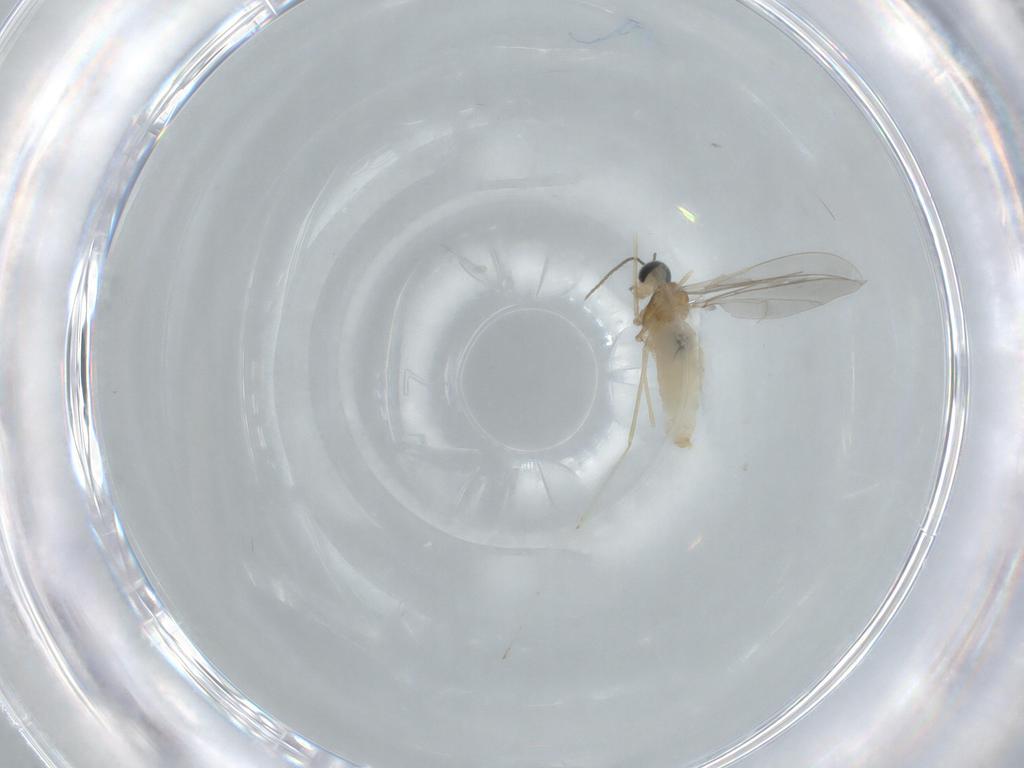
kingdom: Animalia
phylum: Arthropoda
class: Insecta
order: Diptera
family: Cecidomyiidae
